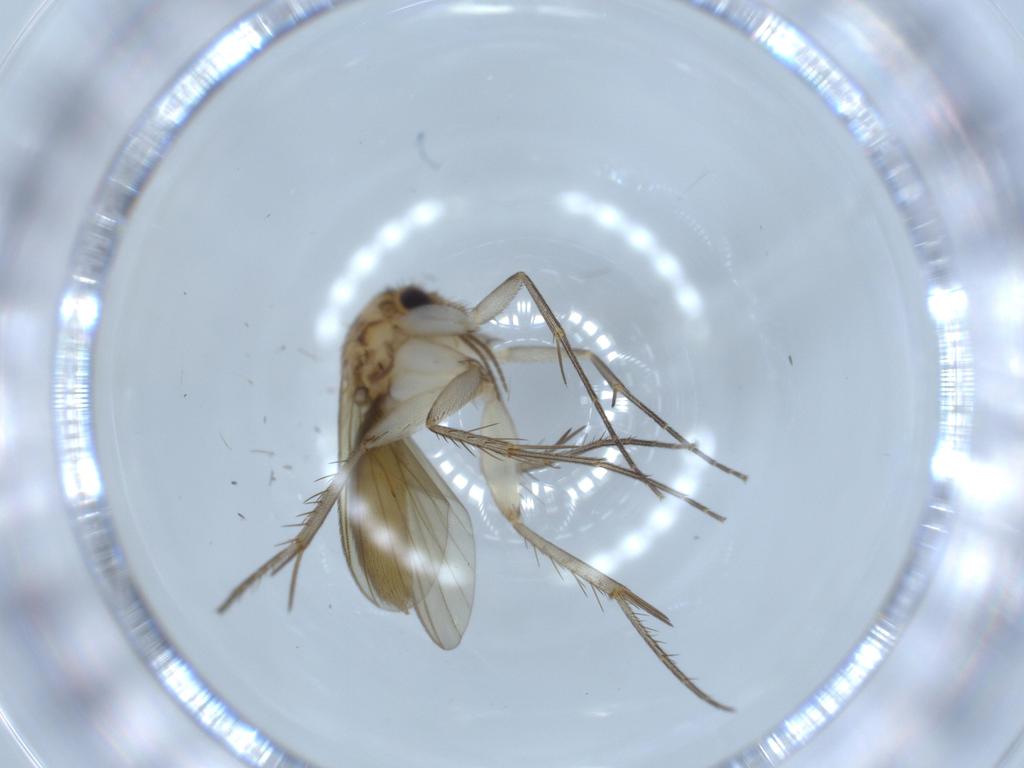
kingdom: Animalia
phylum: Arthropoda
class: Insecta
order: Diptera
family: Mycetophilidae
